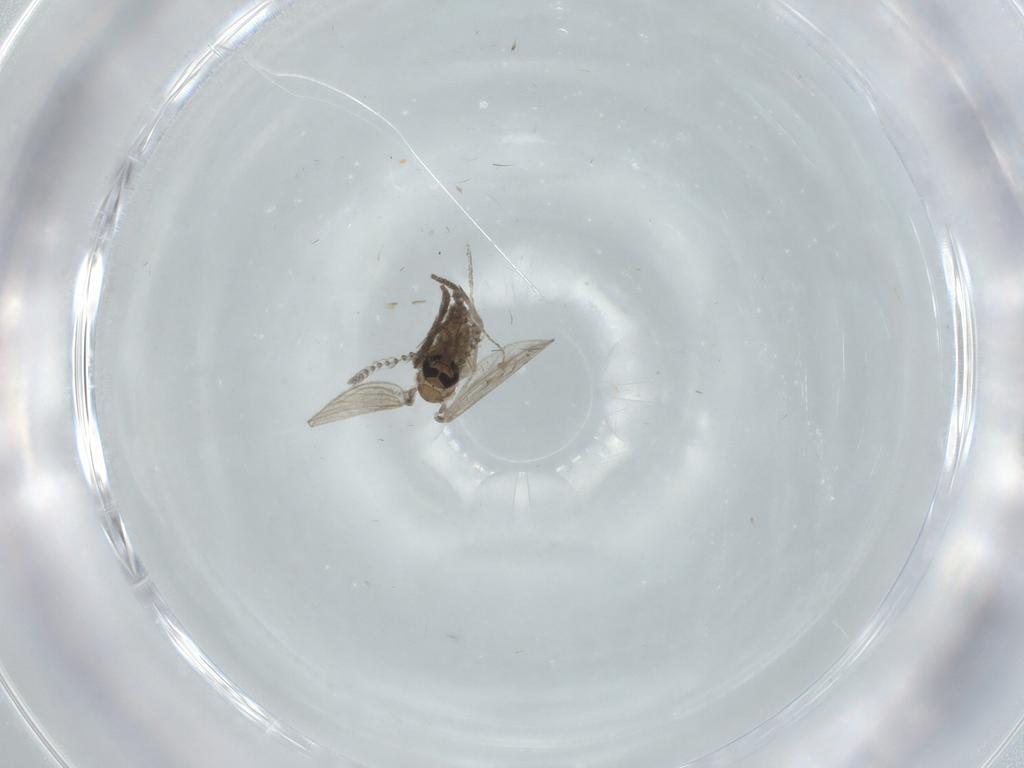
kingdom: Animalia
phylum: Arthropoda
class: Insecta
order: Diptera
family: Psychodidae
